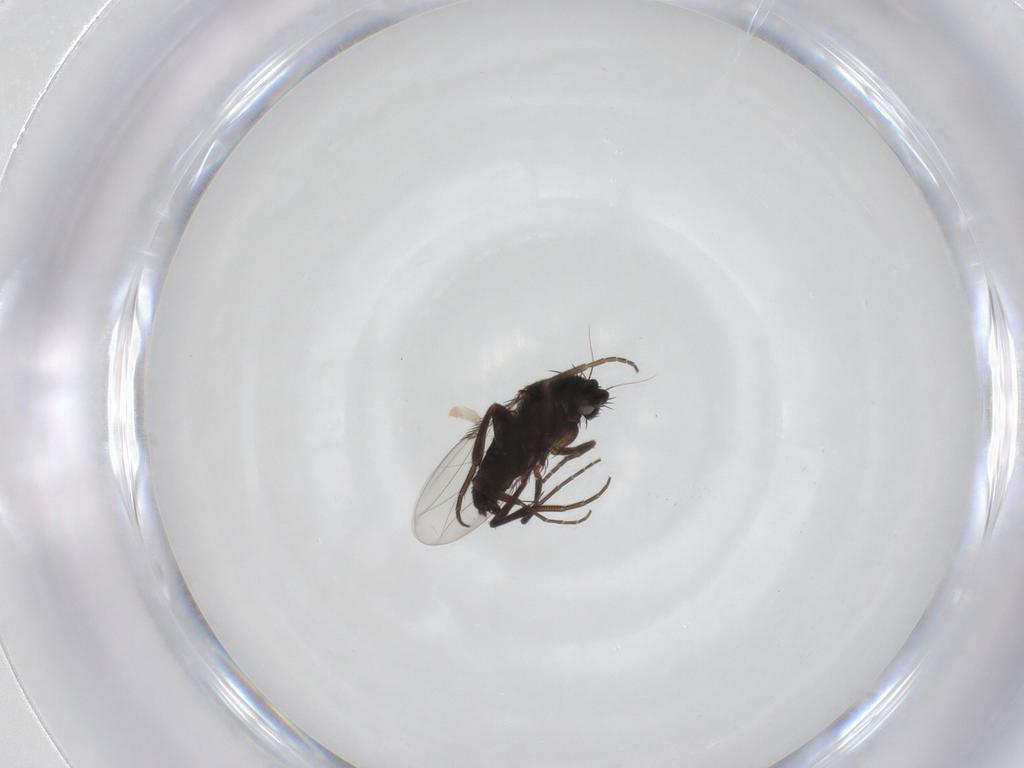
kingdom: Animalia
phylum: Arthropoda
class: Insecta
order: Diptera
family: Phoridae
